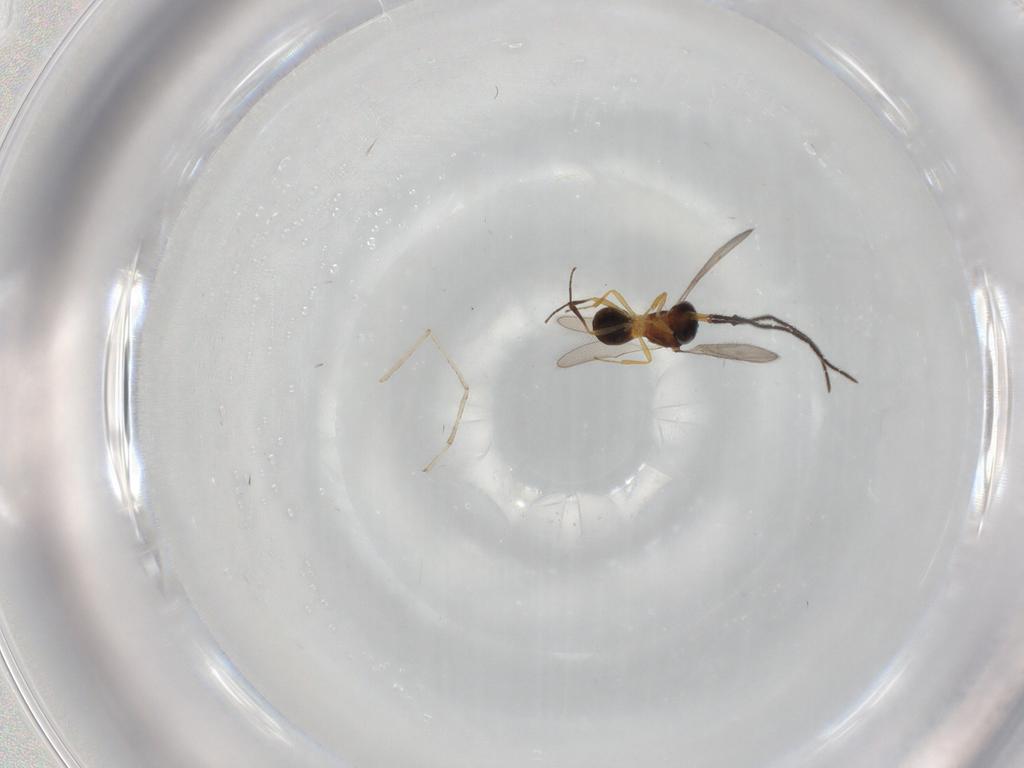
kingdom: Animalia
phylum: Arthropoda
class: Insecta
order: Hymenoptera
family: Scelionidae
